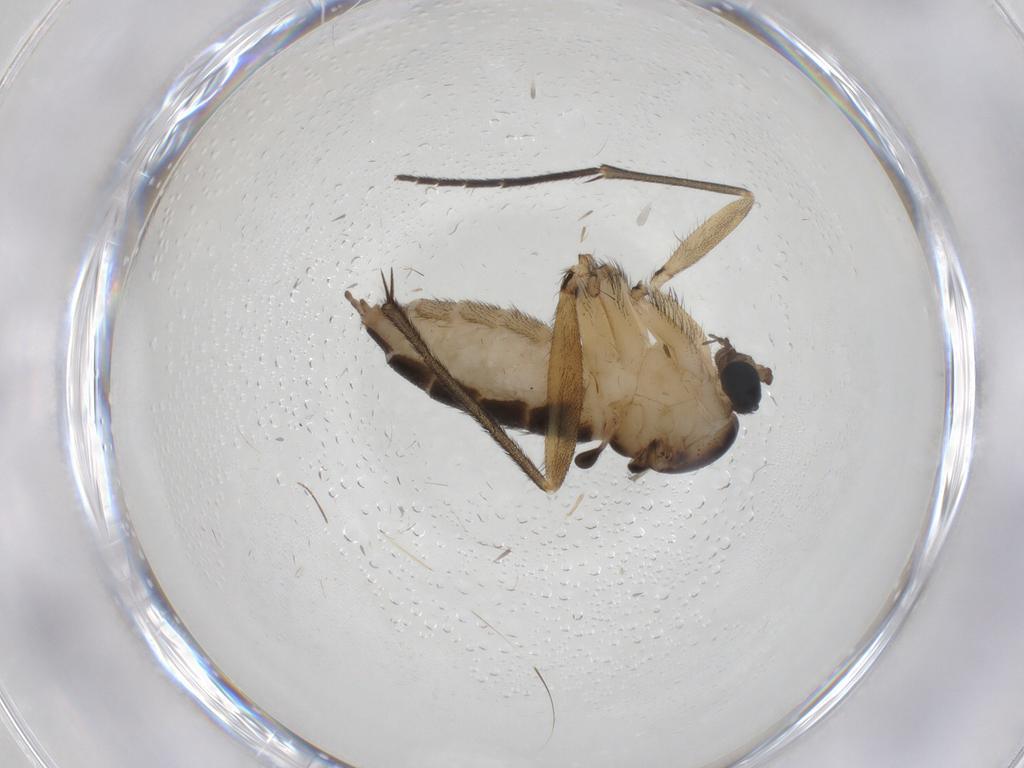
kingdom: Animalia
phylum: Arthropoda
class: Insecta
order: Diptera
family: Sciaridae
